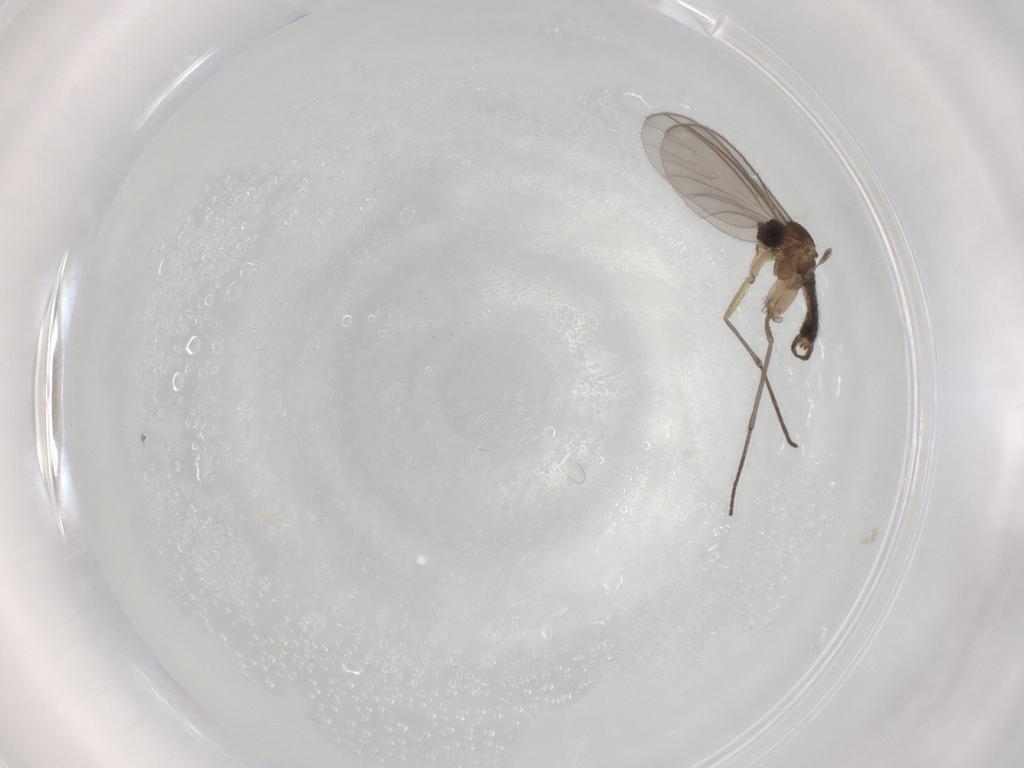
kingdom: Animalia
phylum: Arthropoda
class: Insecta
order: Diptera
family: Sciaridae
